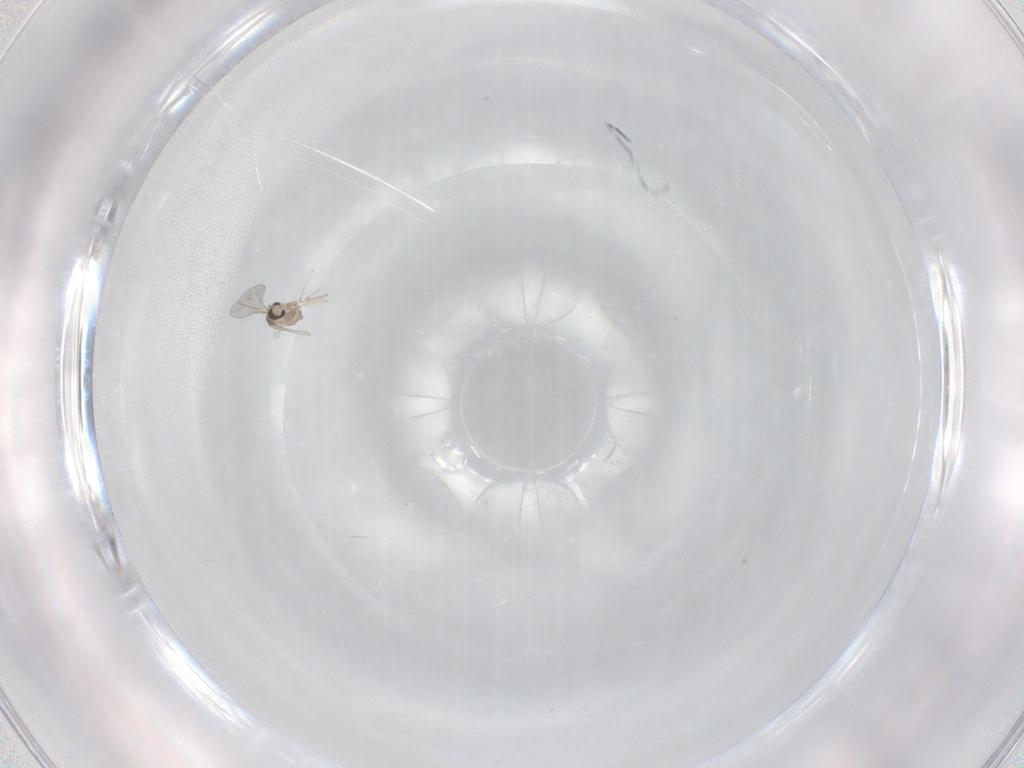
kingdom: Animalia
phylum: Arthropoda
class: Insecta
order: Diptera
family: Cecidomyiidae
